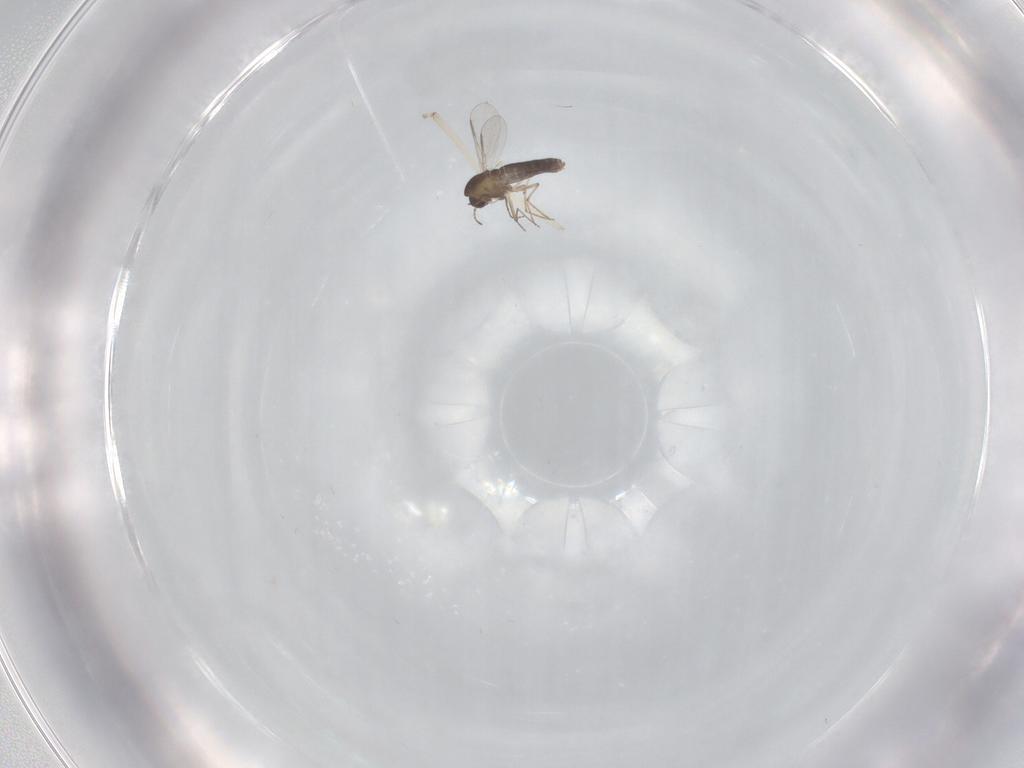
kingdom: Animalia
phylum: Arthropoda
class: Insecta
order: Diptera
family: Chironomidae
